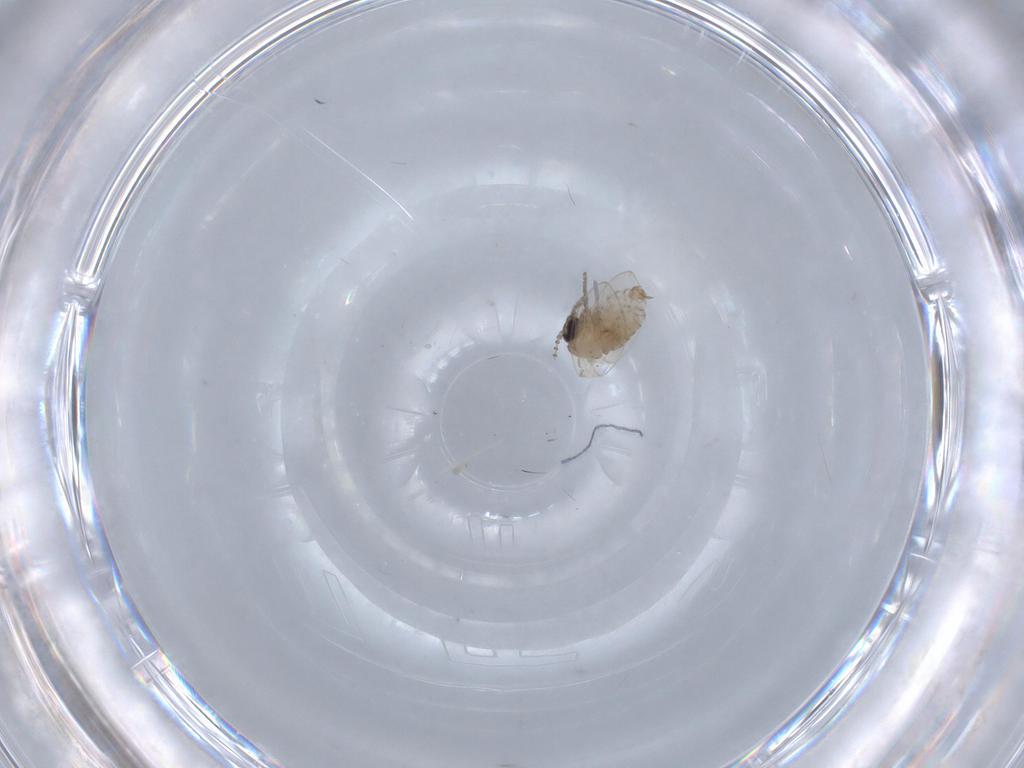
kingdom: Animalia
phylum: Arthropoda
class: Insecta
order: Diptera
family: Psychodidae
